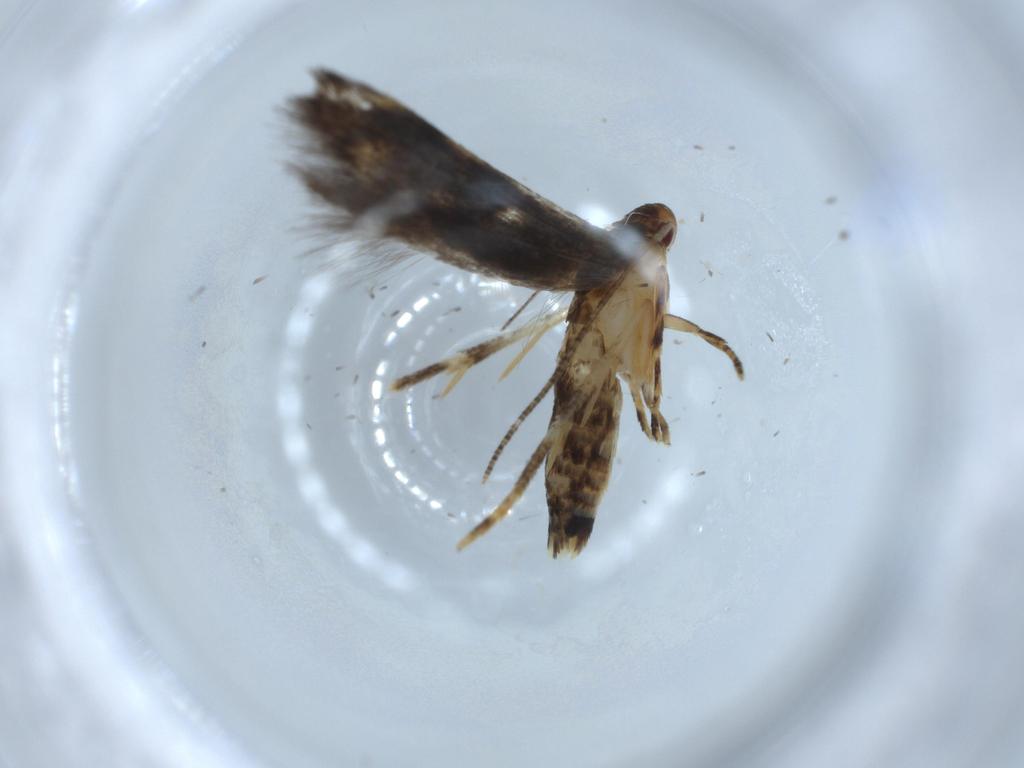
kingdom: Animalia
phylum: Arthropoda
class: Insecta
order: Lepidoptera
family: Momphidae
